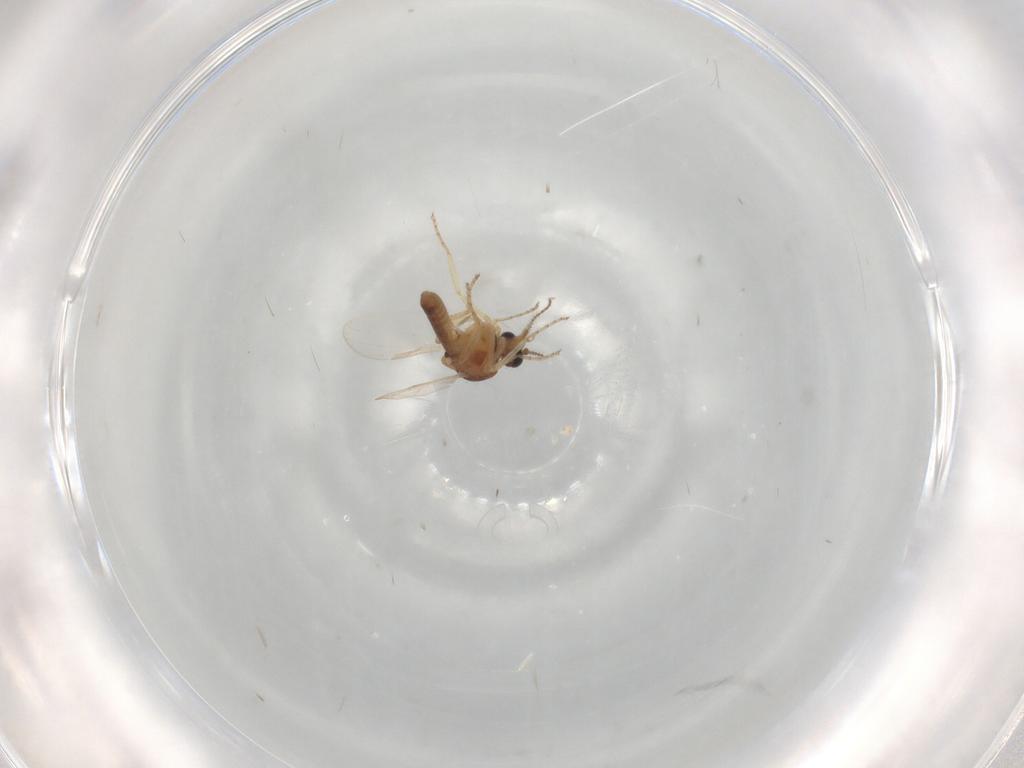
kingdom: Animalia
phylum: Arthropoda
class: Insecta
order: Diptera
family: Ceratopogonidae
